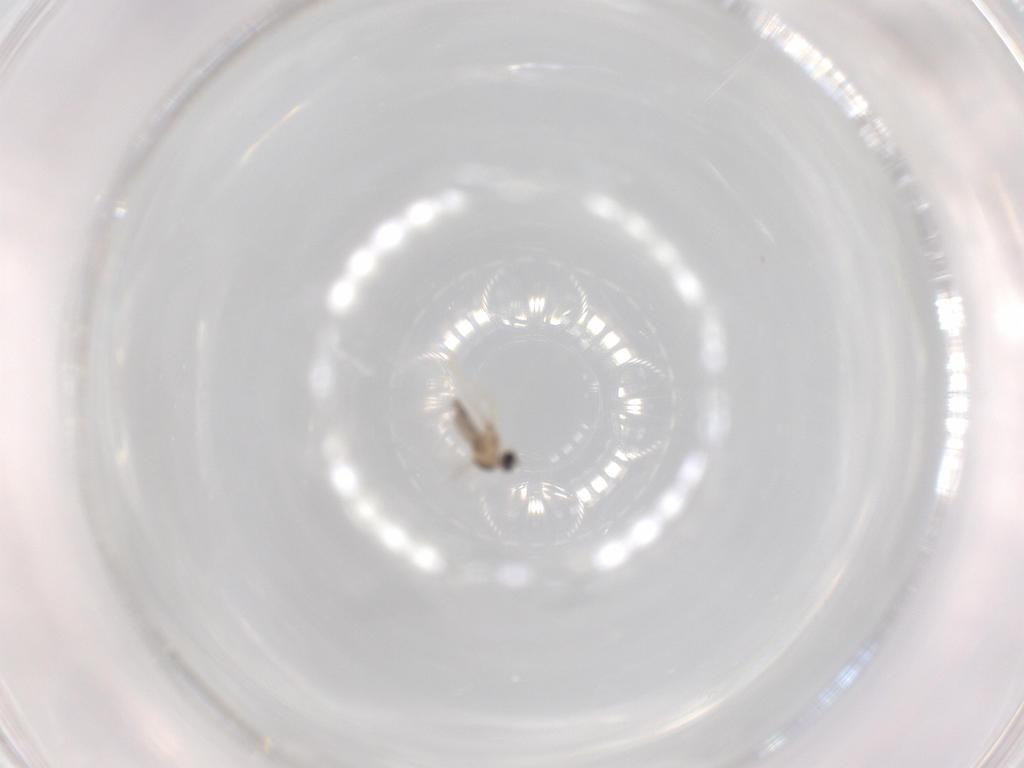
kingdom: Animalia
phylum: Arthropoda
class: Insecta
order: Diptera
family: Cecidomyiidae
